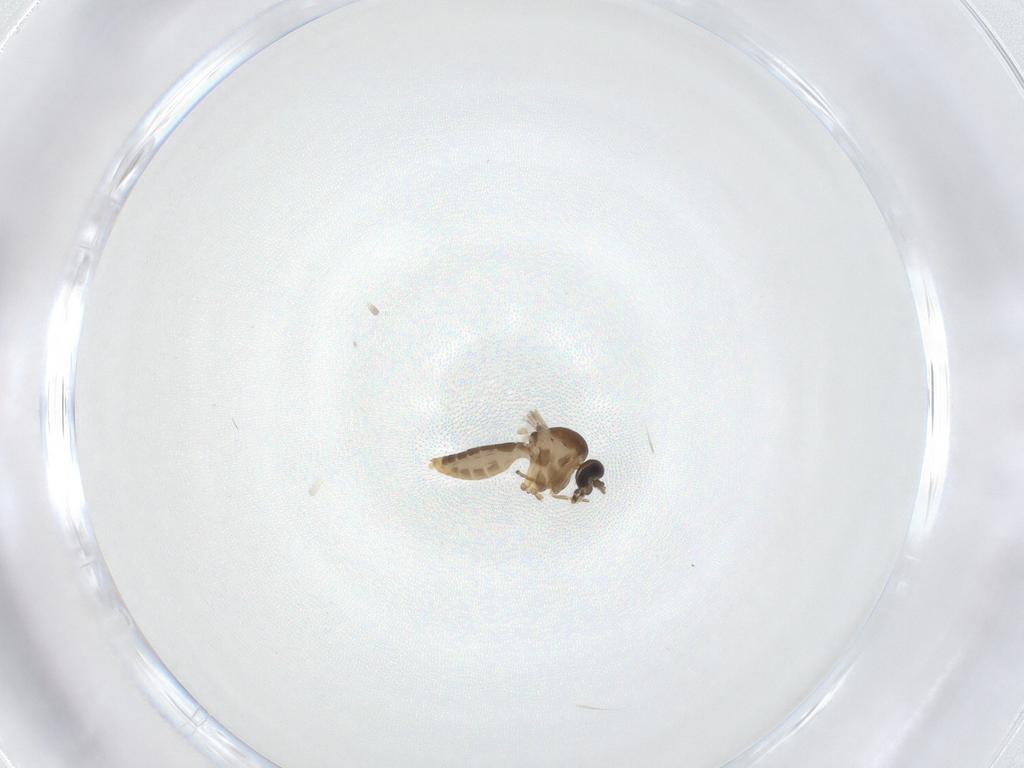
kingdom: Animalia
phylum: Arthropoda
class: Insecta
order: Diptera
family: Ceratopogonidae
